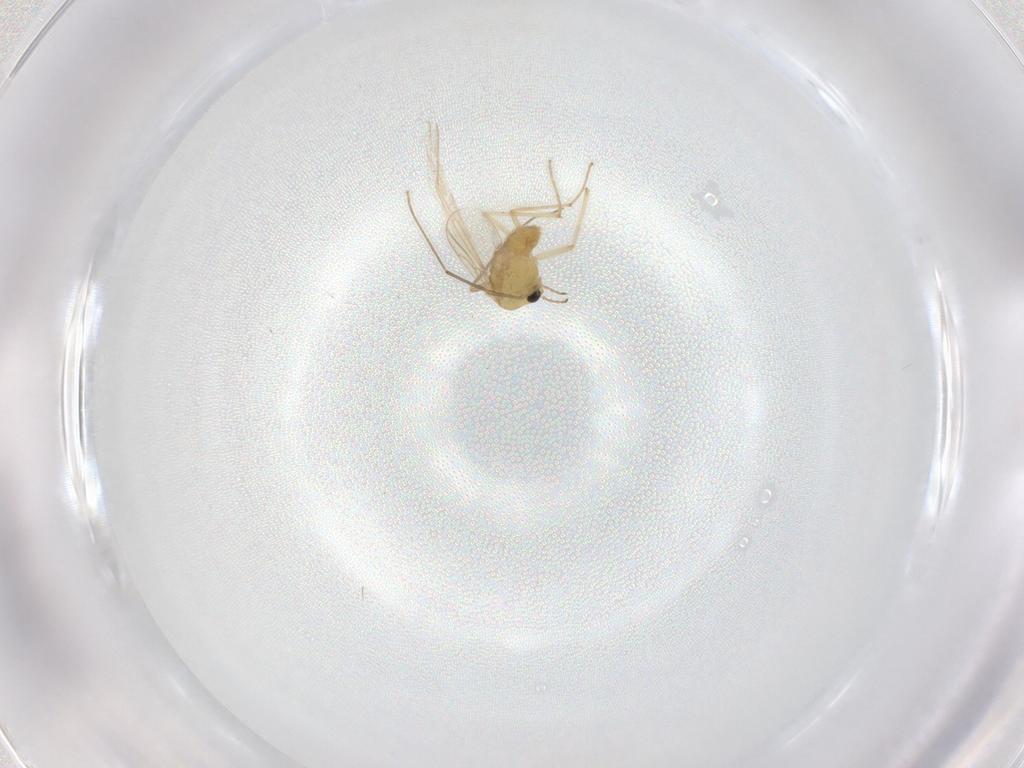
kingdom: Animalia
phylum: Arthropoda
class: Insecta
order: Diptera
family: Chironomidae
